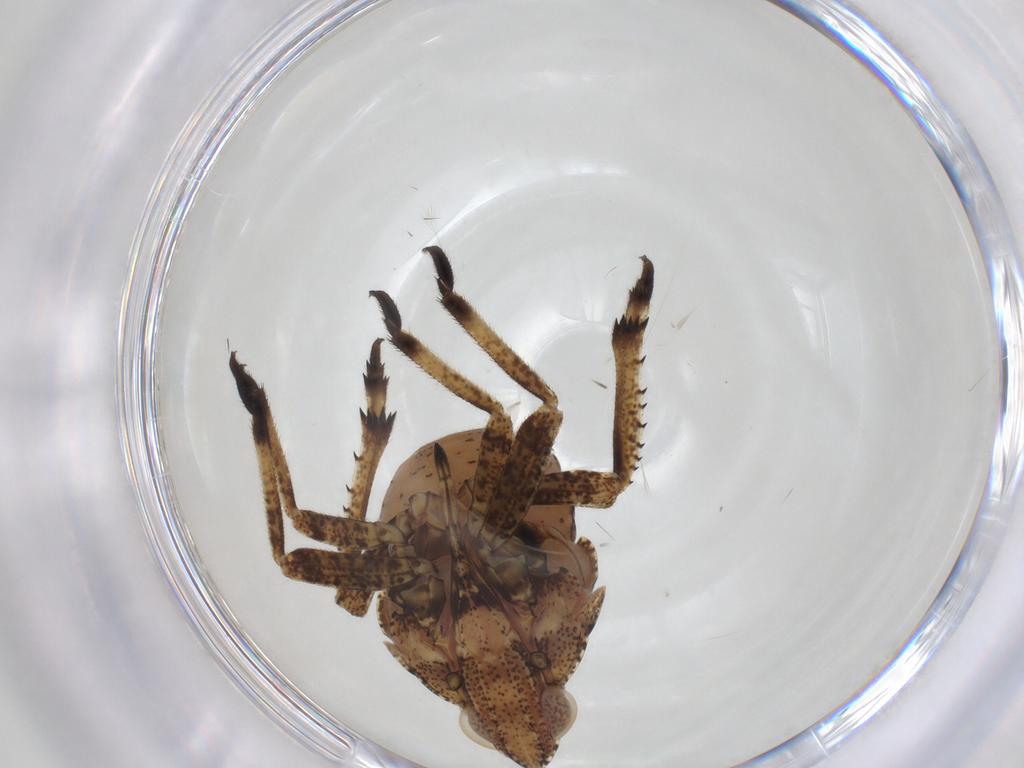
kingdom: Animalia
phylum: Arthropoda
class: Insecta
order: Hemiptera
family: Dictyopharidae
